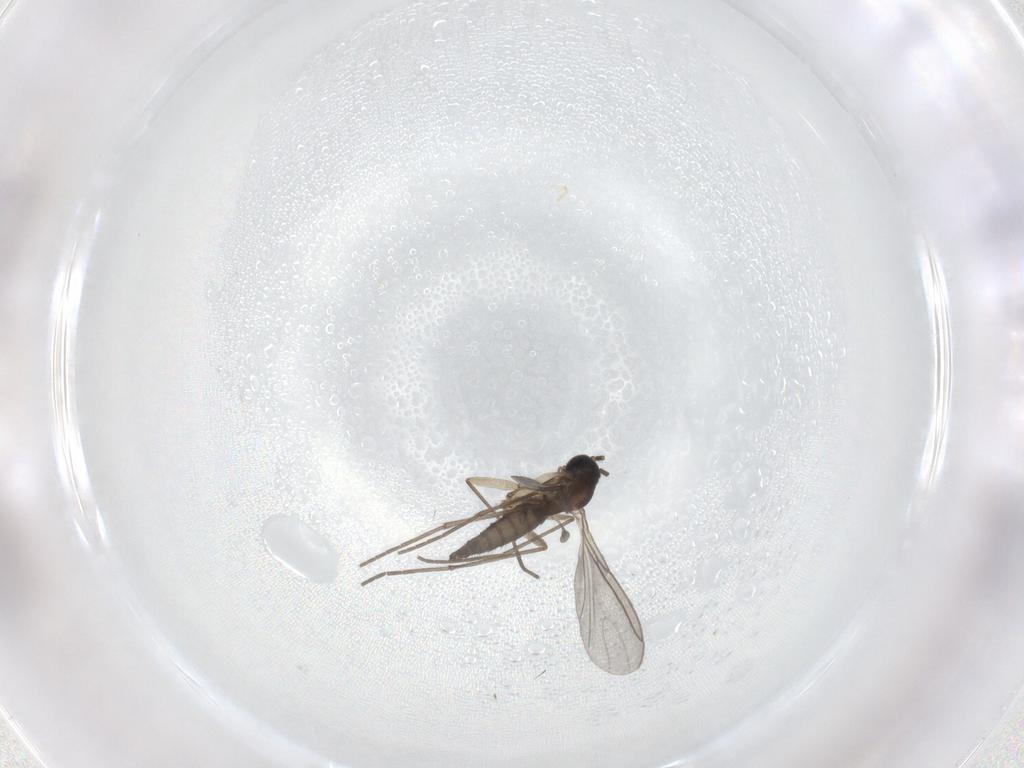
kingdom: Animalia
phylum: Arthropoda
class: Insecta
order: Diptera
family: Sciaridae
